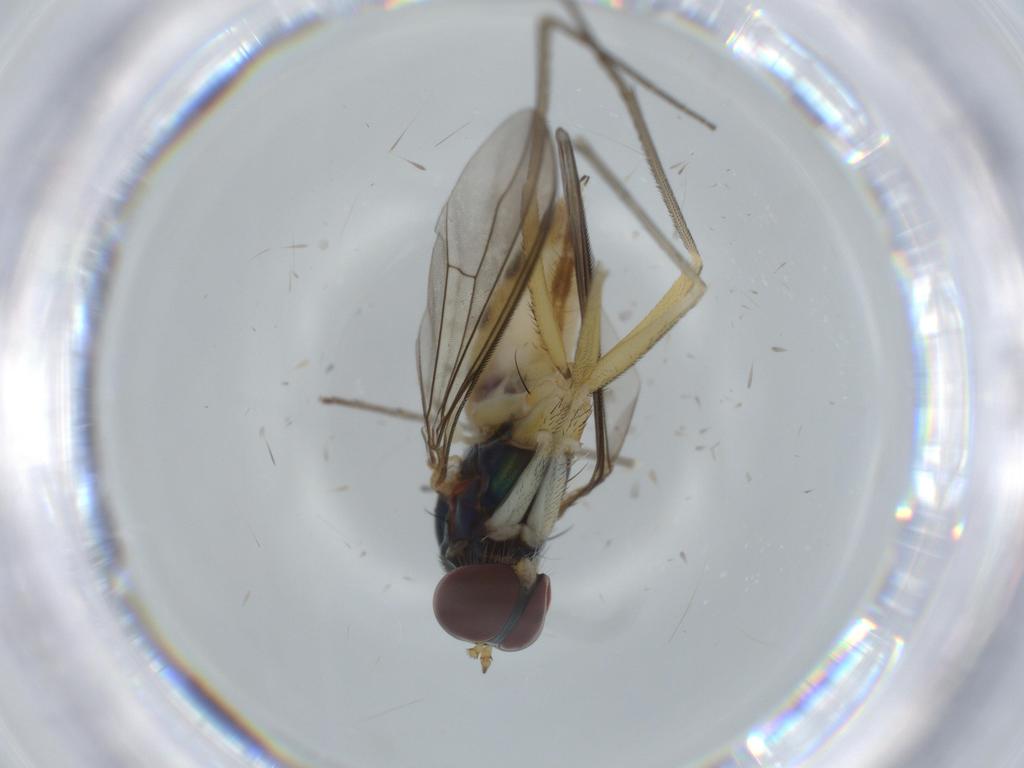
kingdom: Animalia
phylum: Arthropoda
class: Insecta
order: Diptera
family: Dolichopodidae
